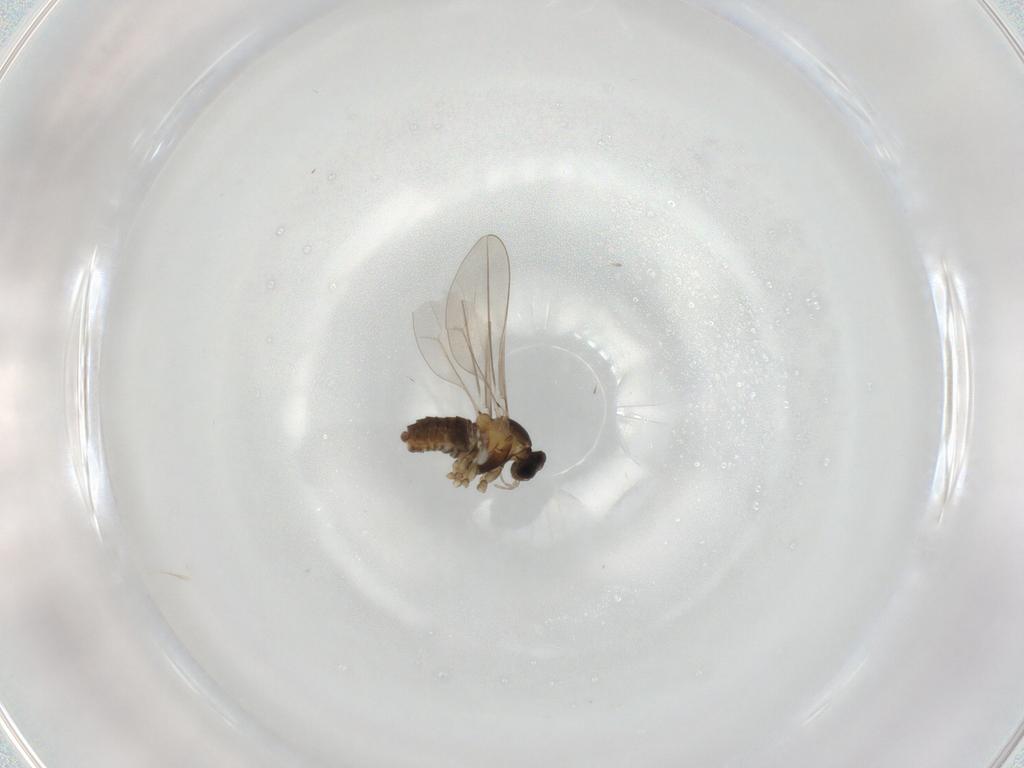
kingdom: Animalia
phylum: Arthropoda
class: Insecta
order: Diptera
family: Cecidomyiidae
